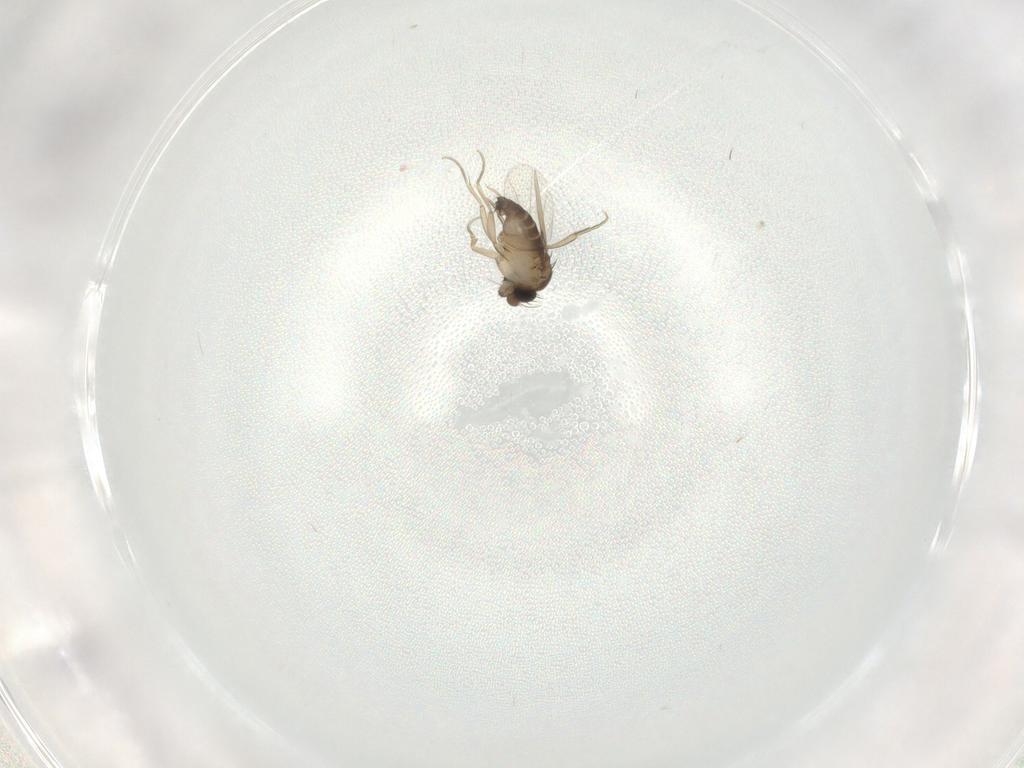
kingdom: Animalia
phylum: Arthropoda
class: Insecta
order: Diptera
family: Phoridae
